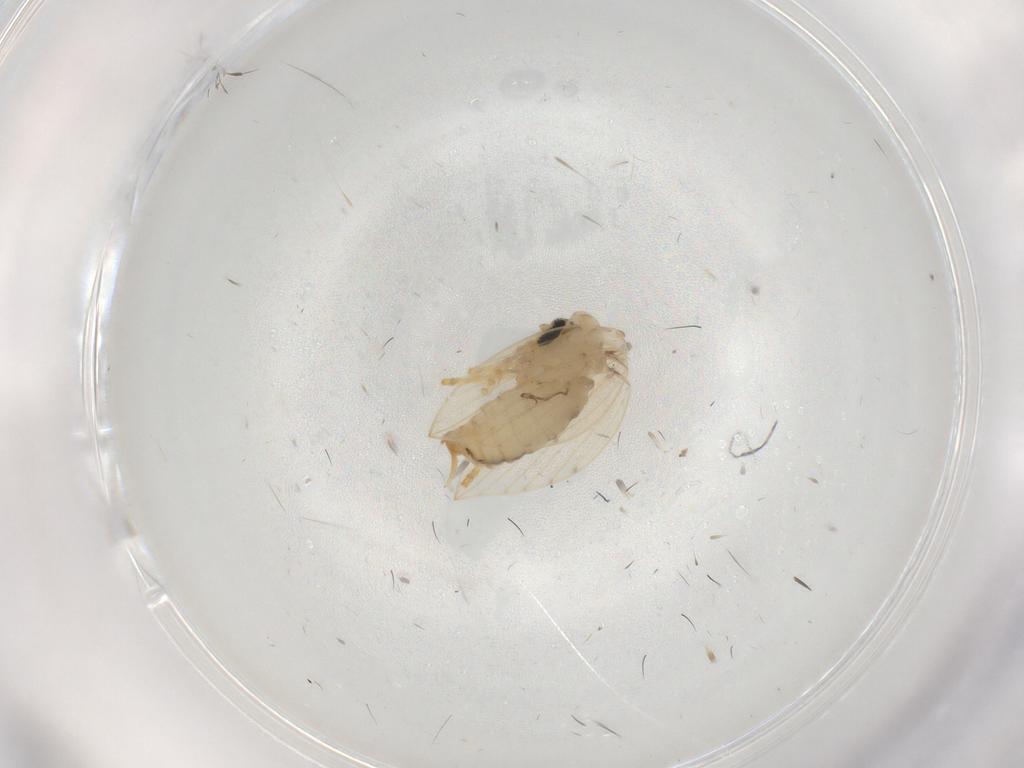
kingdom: Animalia
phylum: Arthropoda
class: Insecta
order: Diptera
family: Psychodidae
